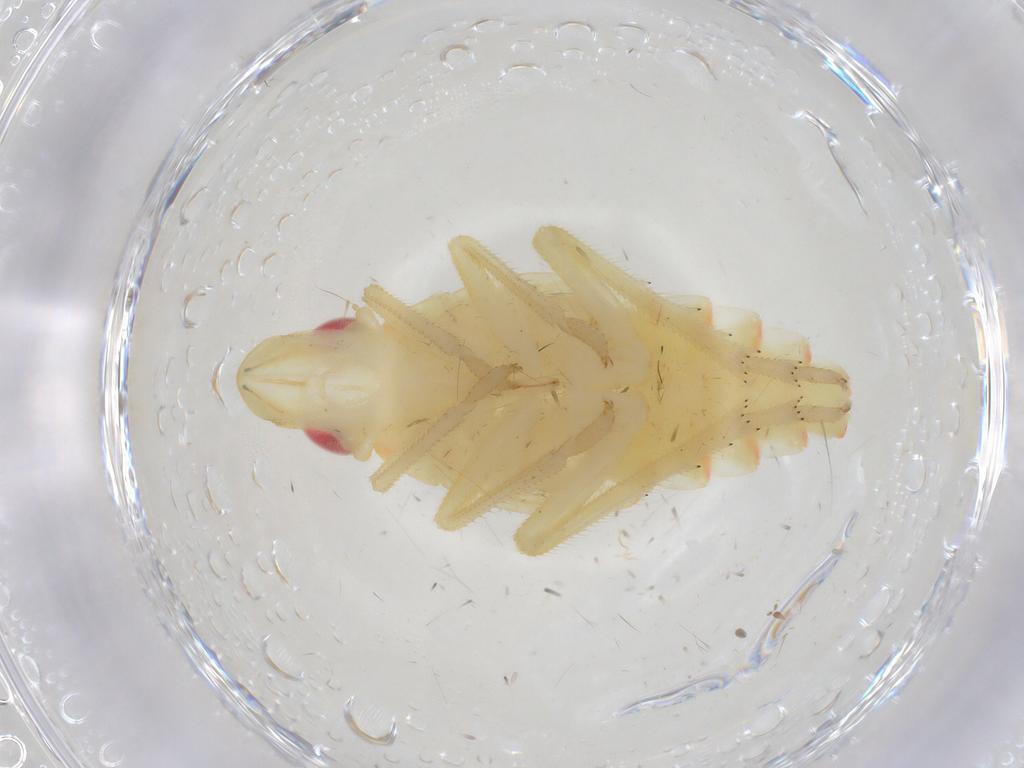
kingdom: Animalia
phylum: Arthropoda
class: Insecta
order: Hemiptera
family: Tropiduchidae
